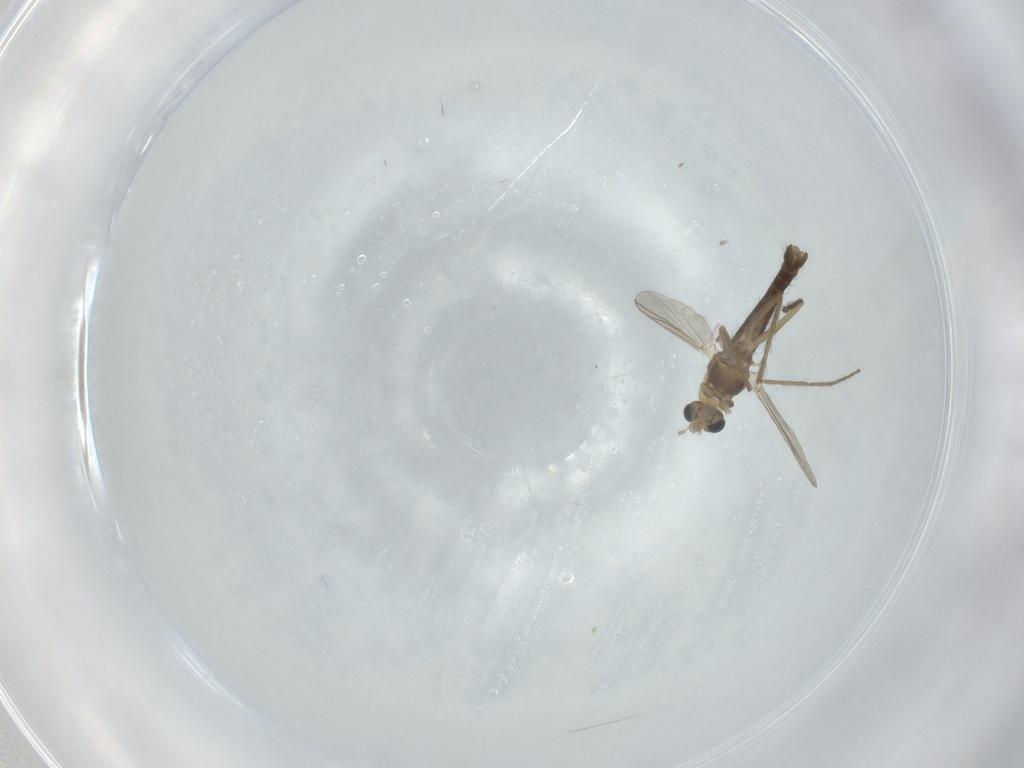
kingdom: Animalia
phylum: Arthropoda
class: Insecta
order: Diptera
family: Chironomidae
